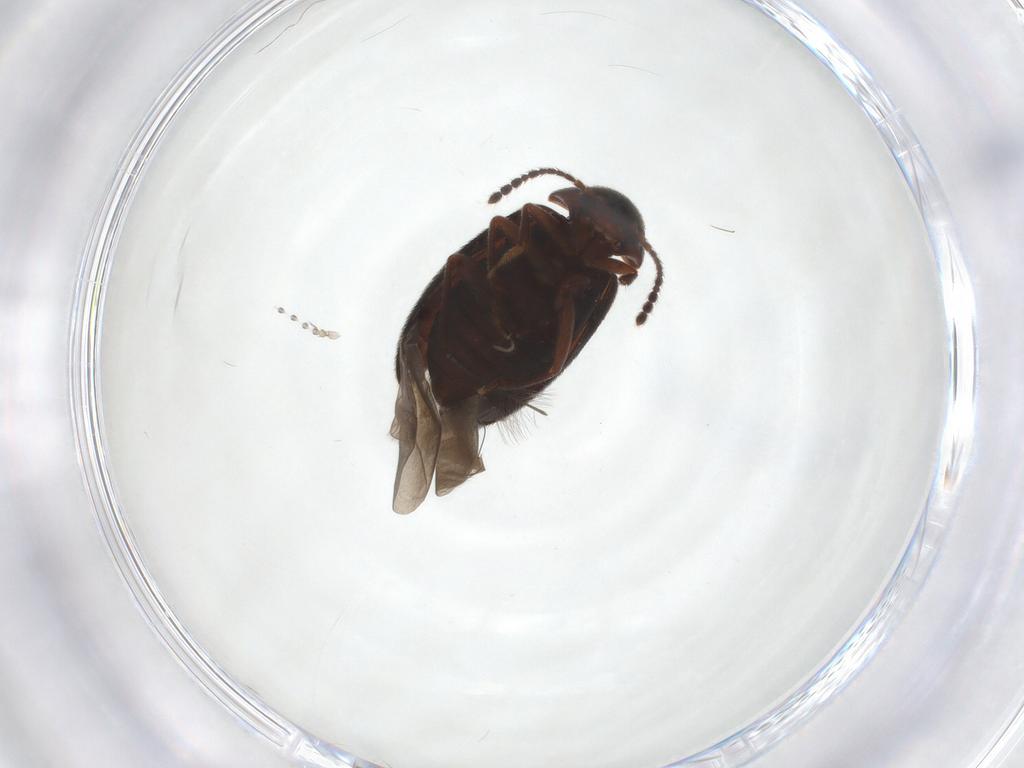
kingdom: Animalia
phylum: Arthropoda
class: Insecta
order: Coleoptera
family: Leiodidae
